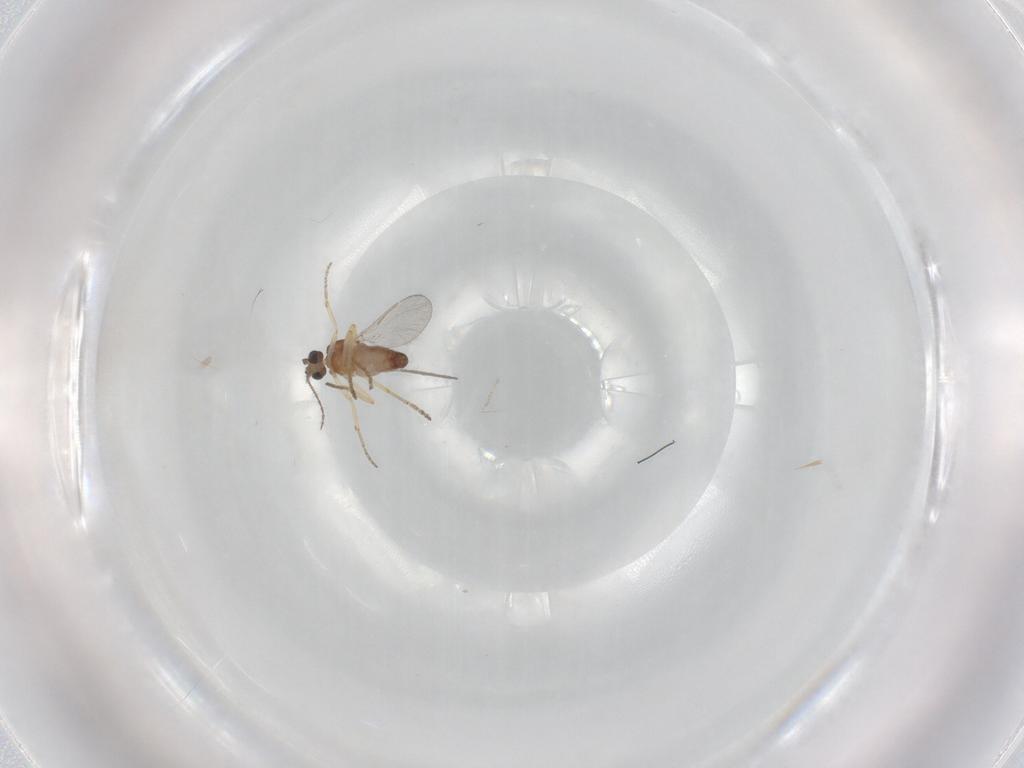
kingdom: Animalia
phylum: Arthropoda
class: Insecta
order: Diptera
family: Ceratopogonidae
